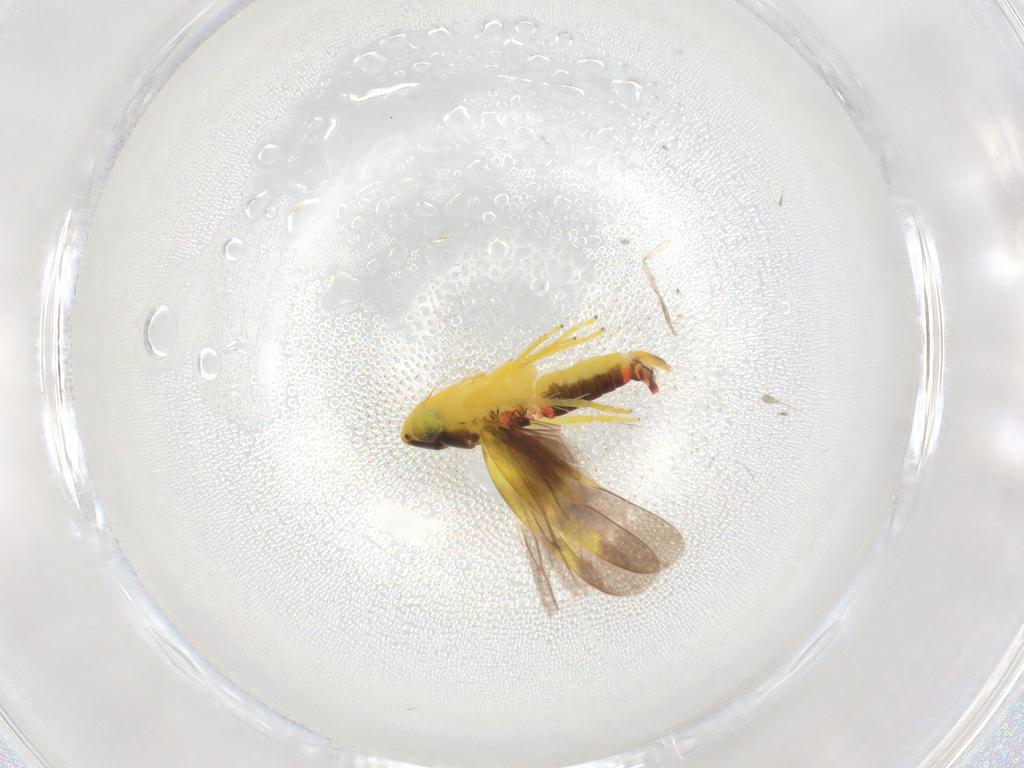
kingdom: Animalia
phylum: Arthropoda
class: Insecta
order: Hemiptera
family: Cicadellidae
